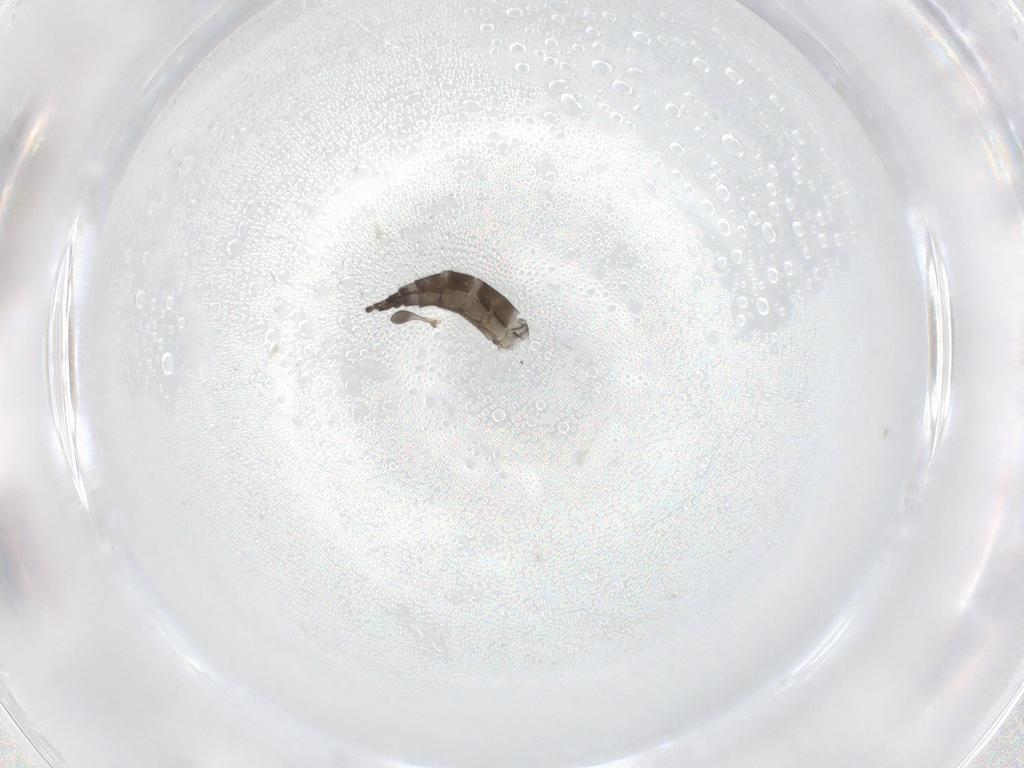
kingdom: Animalia
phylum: Arthropoda
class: Insecta
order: Diptera
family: Sciaridae
